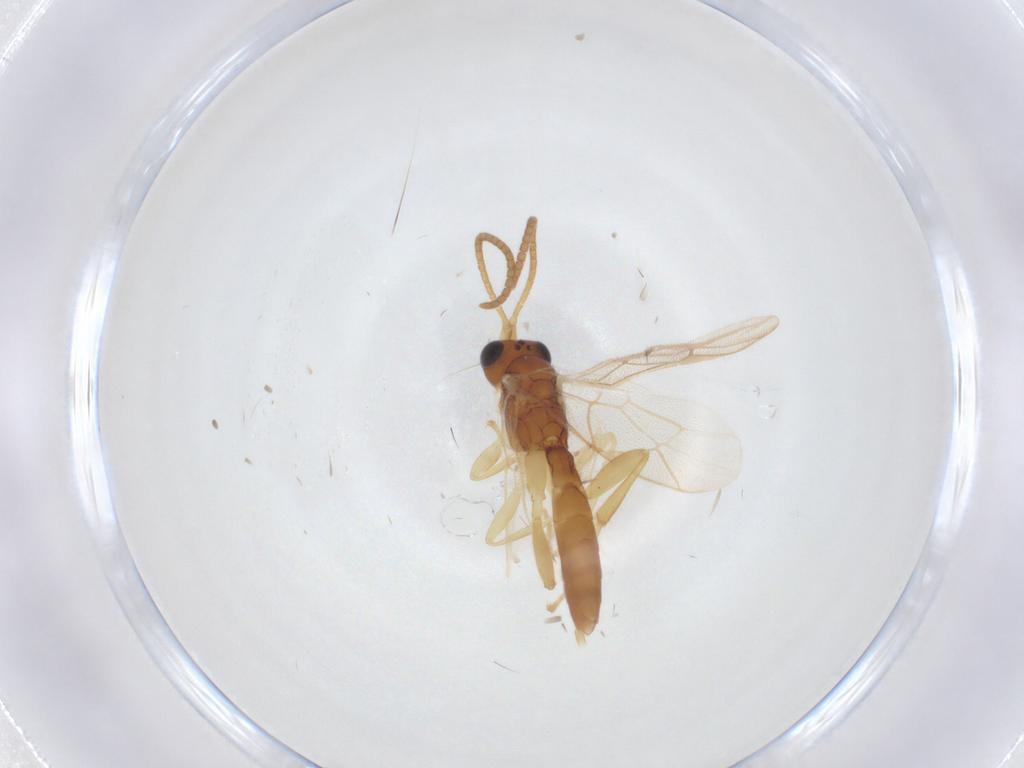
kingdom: Animalia
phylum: Arthropoda
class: Insecta
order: Hymenoptera
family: Ichneumonidae
